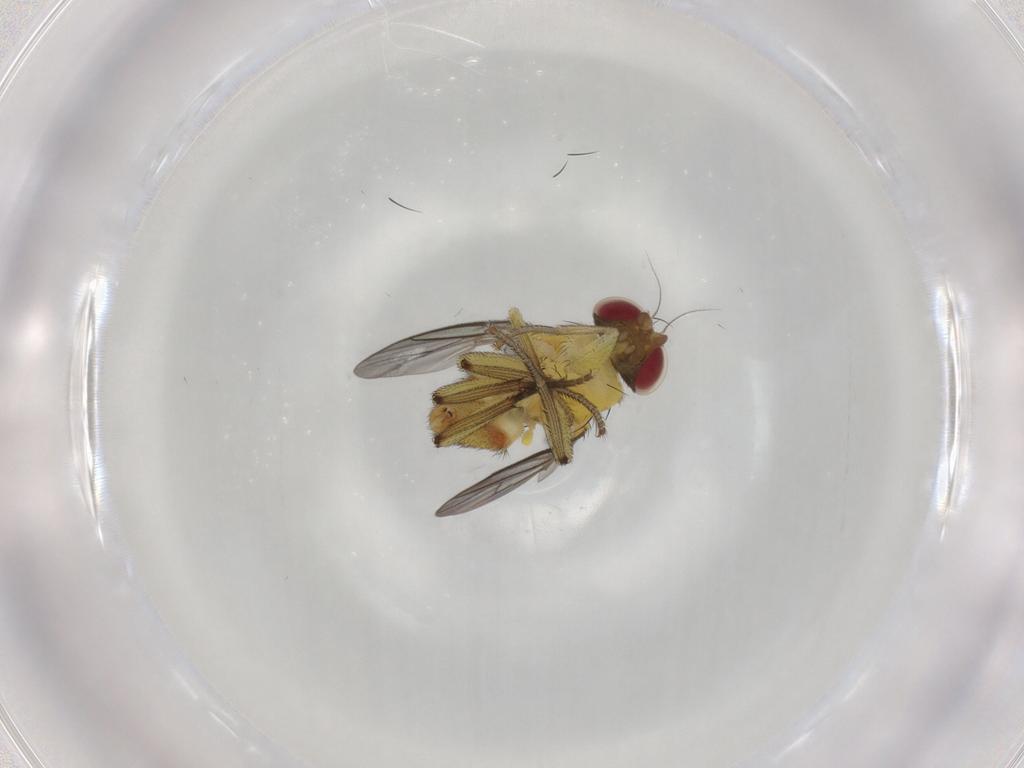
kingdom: Animalia
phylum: Arthropoda
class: Insecta
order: Diptera
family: Agromyzidae
